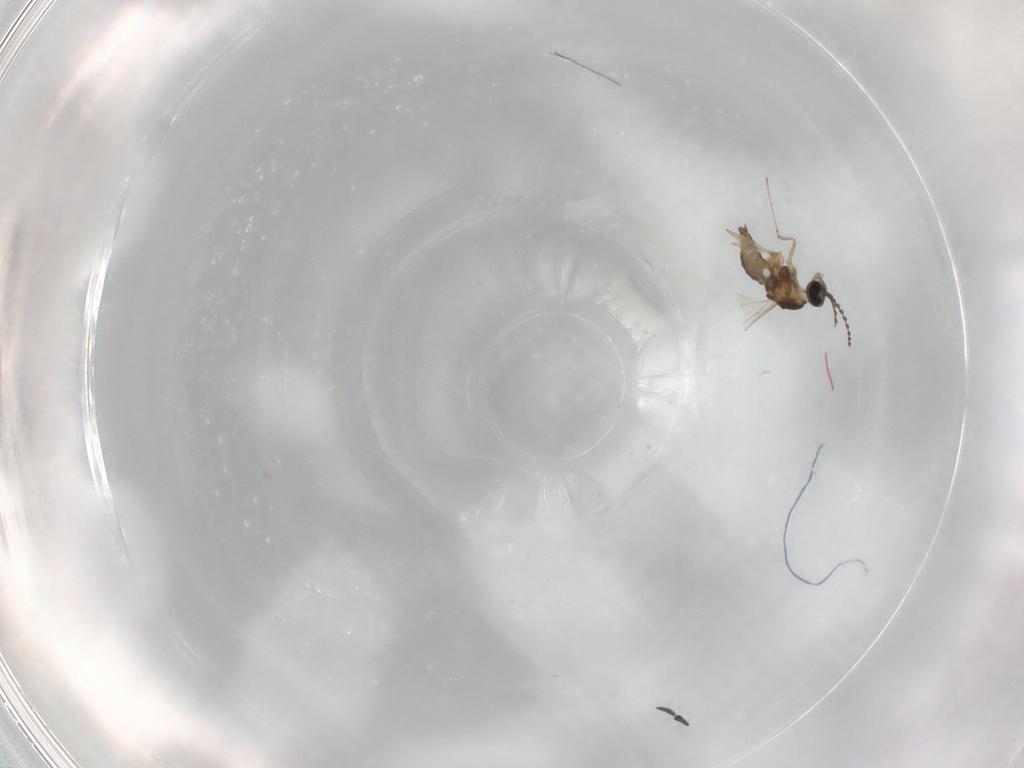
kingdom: Animalia
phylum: Arthropoda
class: Insecta
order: Diptera
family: Cecidomyiidae
